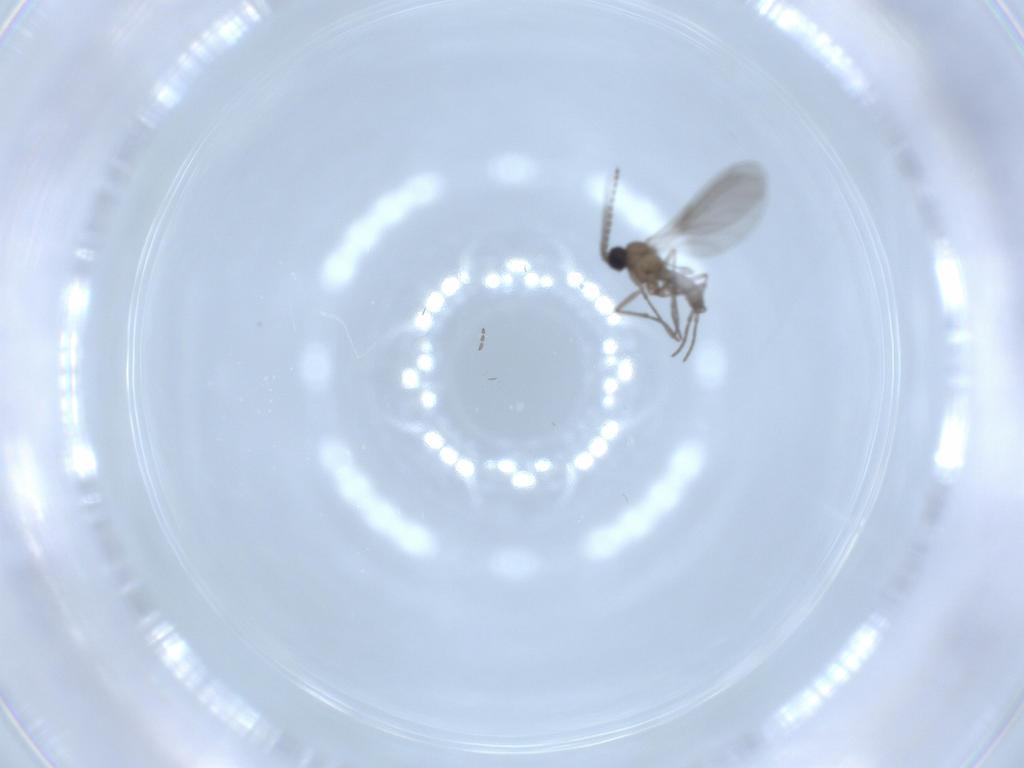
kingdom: Animalia
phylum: Arthropoda
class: Insecta
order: Diptera
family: Sciaridae
